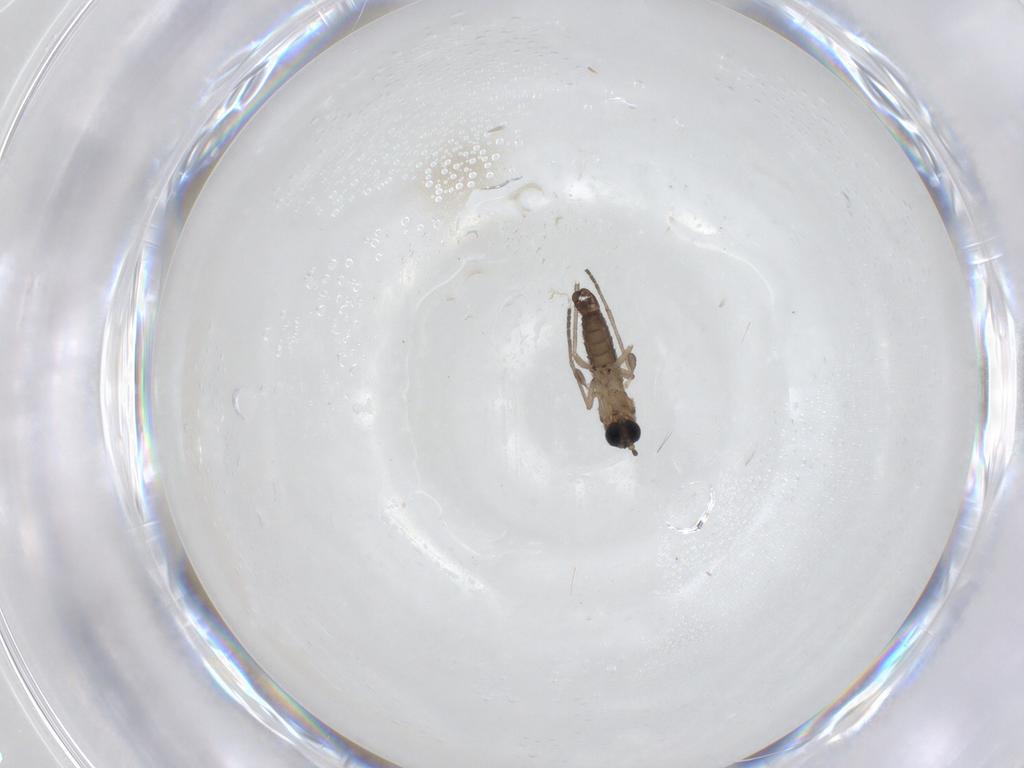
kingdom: Animalia
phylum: Arthropoda
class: Insecta
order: Diptera
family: Sciaridae
